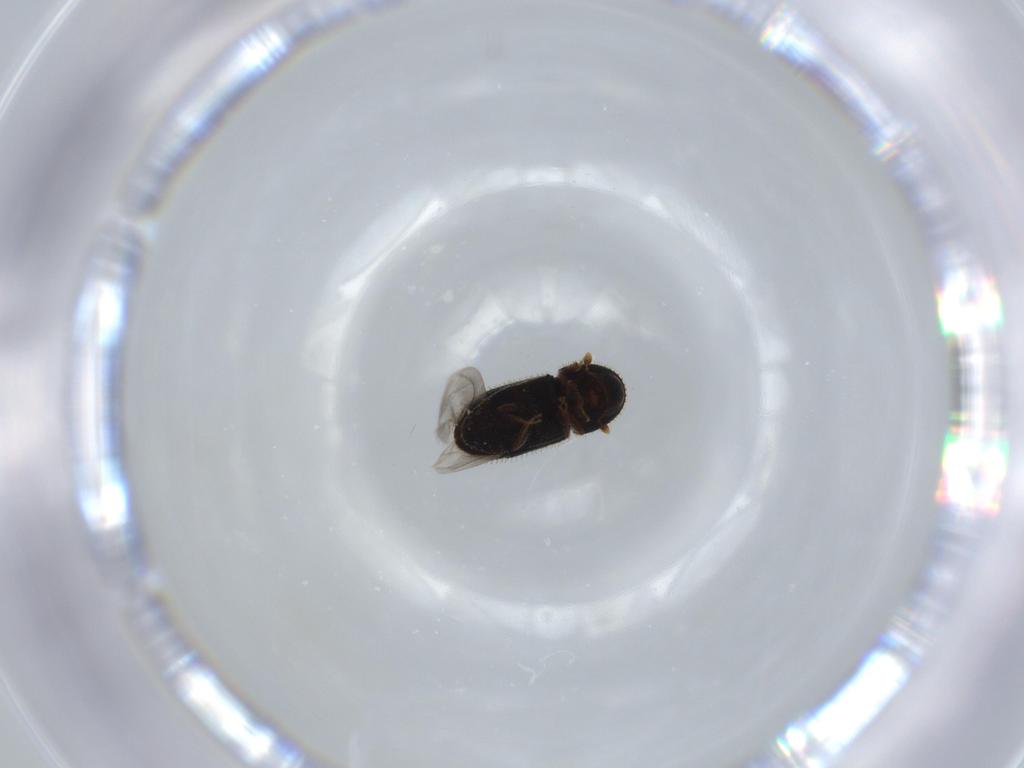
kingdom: Animalia
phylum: Arthropoda
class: Insecta
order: Coleoptera
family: Curculionidae
